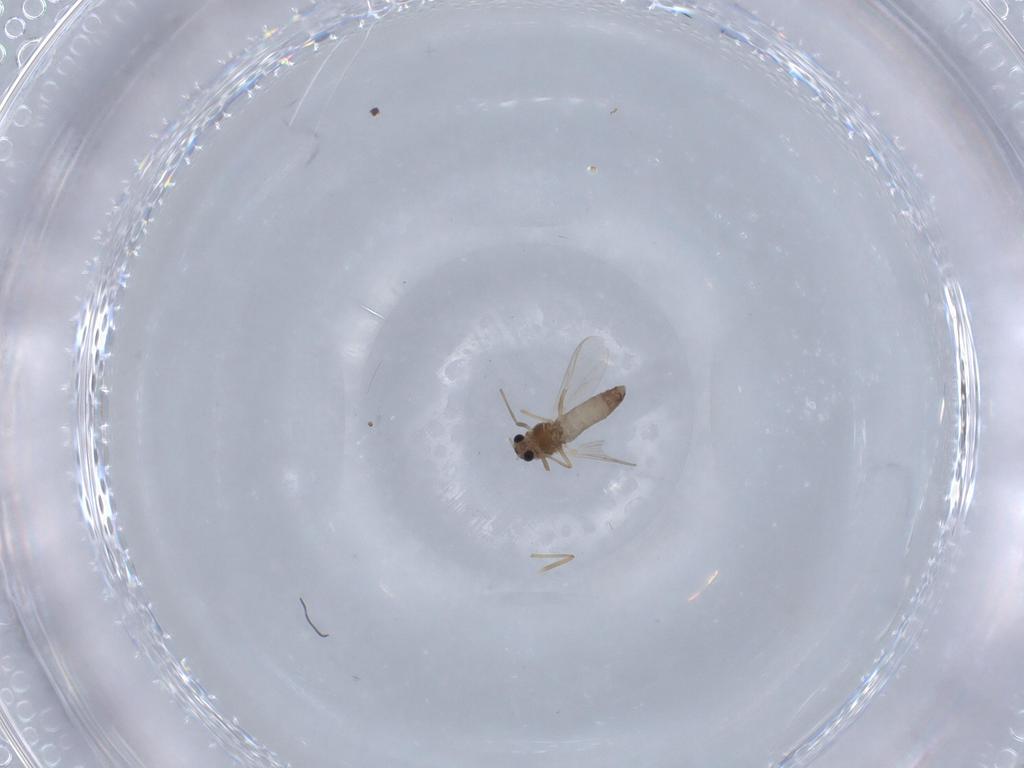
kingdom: Animalia
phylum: Arthropoda
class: Insecta
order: Diptera
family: Chironomidae
